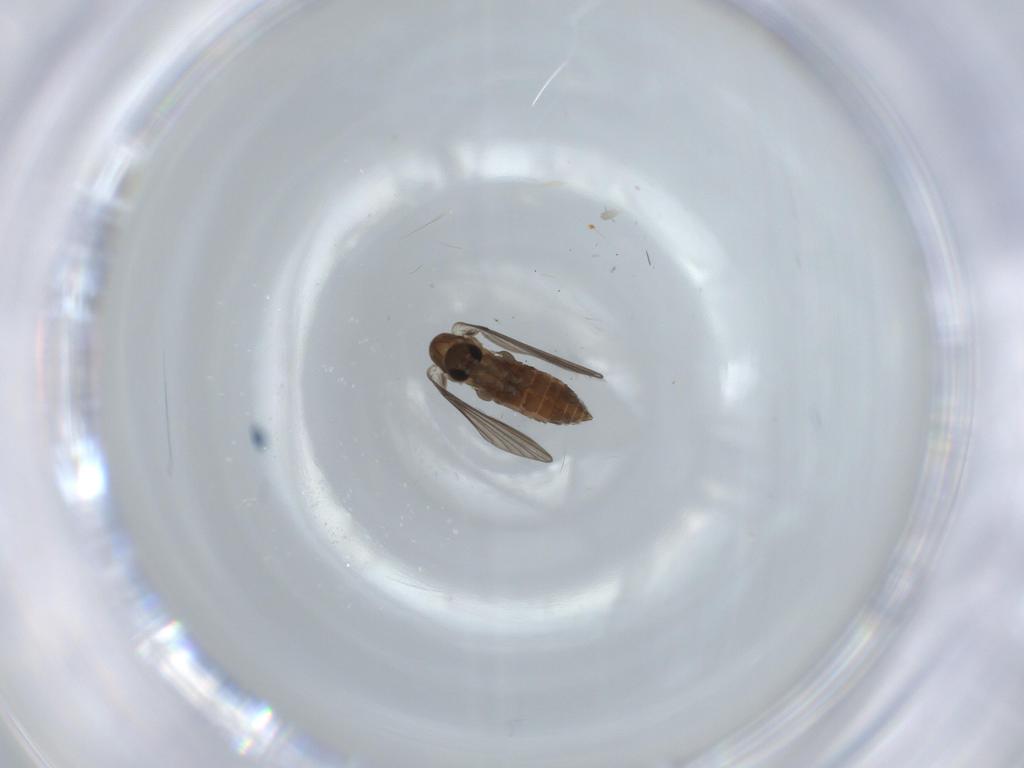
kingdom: Animalia
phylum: Arthropoda
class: Insecta
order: Diptera
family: Psychodidae
